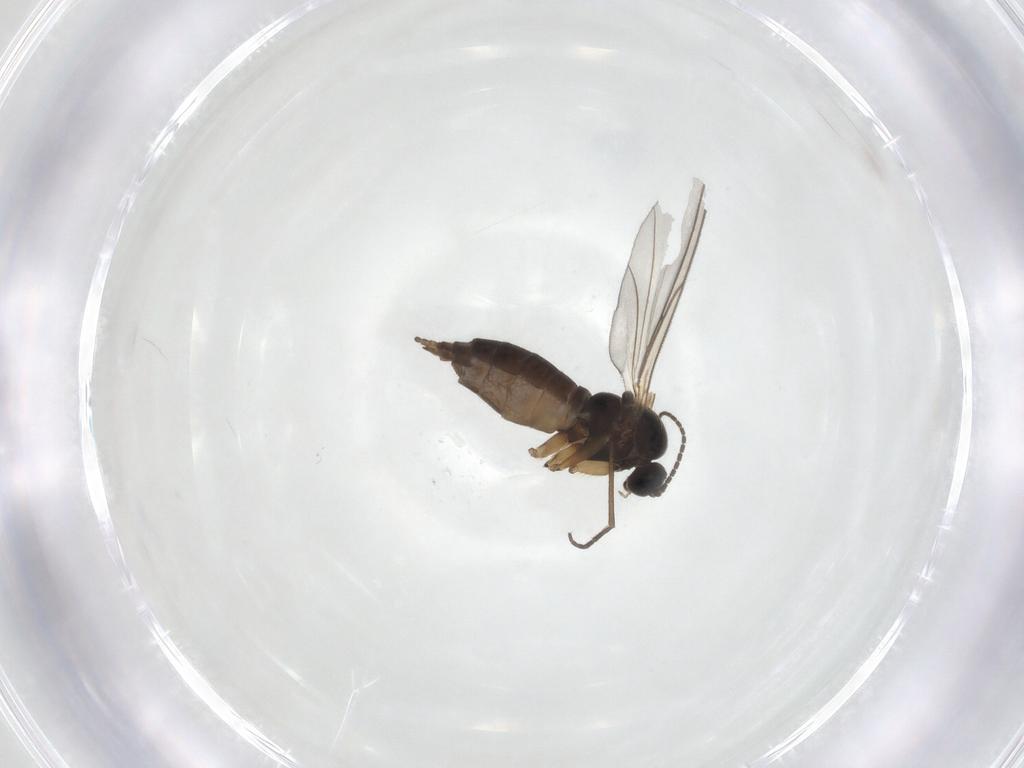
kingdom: Animalia
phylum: Arthropoda
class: Insecta
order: Diptera
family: Sciaridae
